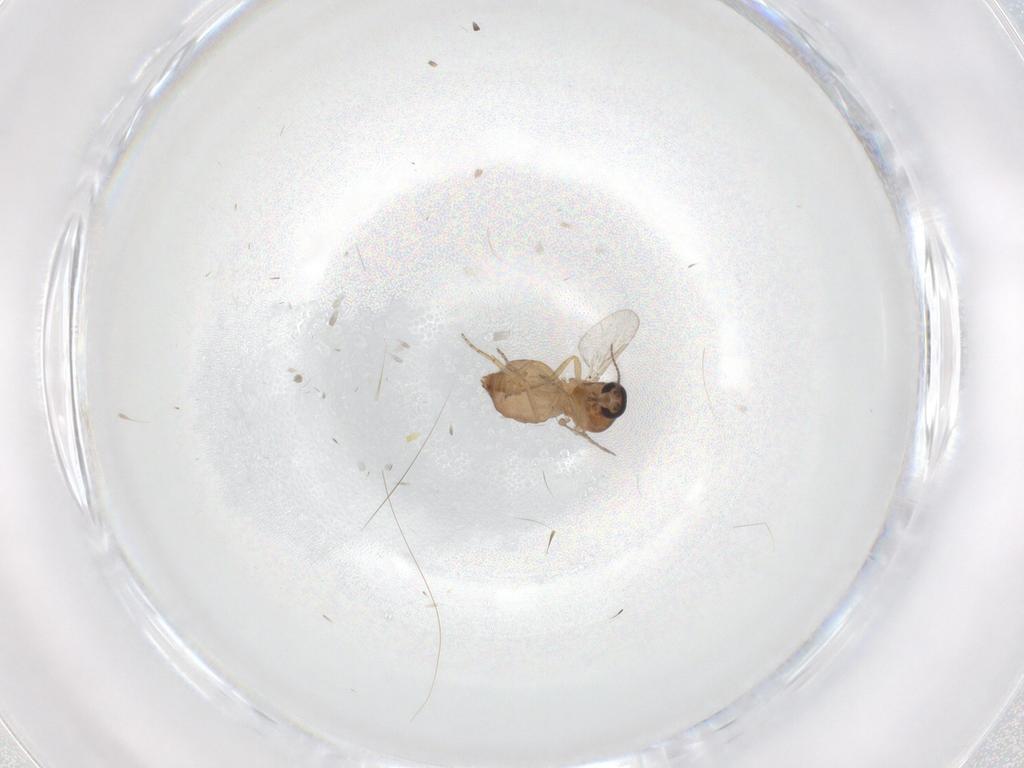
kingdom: Animalia
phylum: Arthropoda
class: Insecta
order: Diptera
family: Ceratopogonidae
